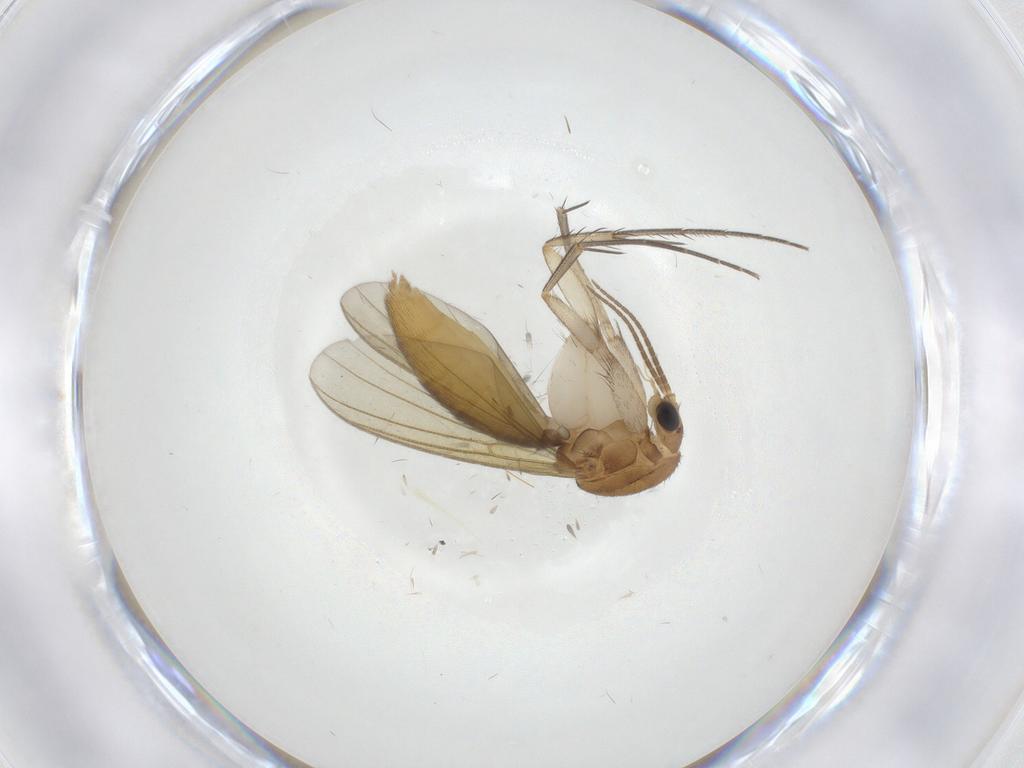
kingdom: Animalia
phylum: Arthropoda
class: Insecta
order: Diptera
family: Mycetophilidae
